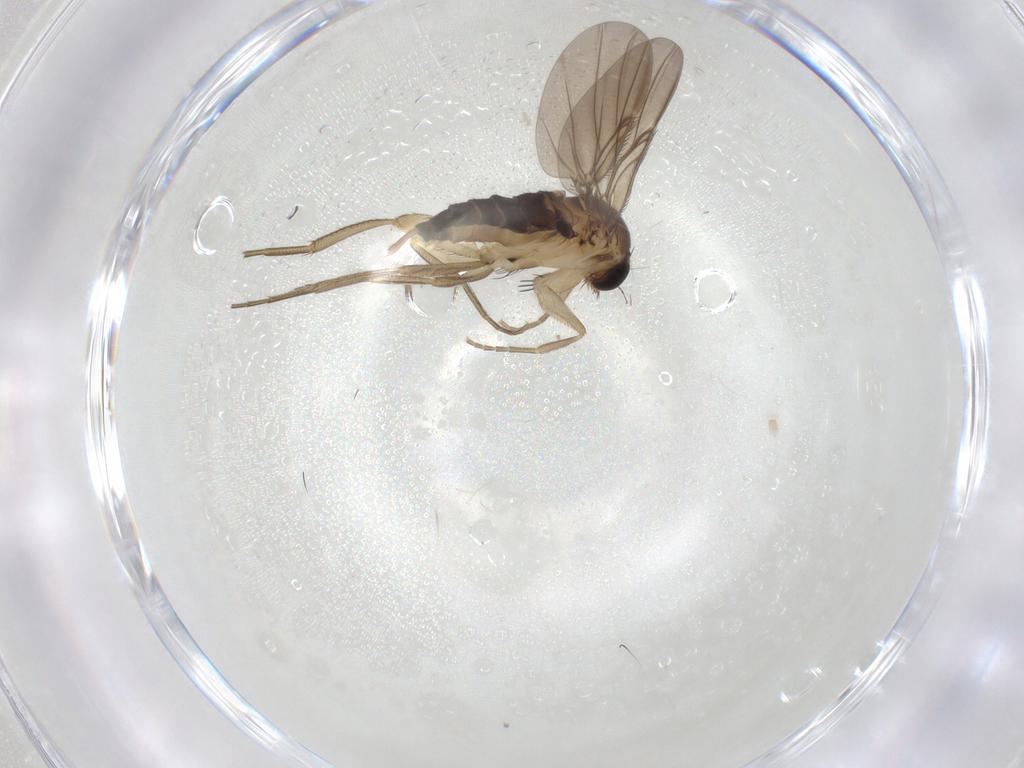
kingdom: Animalia
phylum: Arthropoda
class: Insecta
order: Diptera
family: Phoridae
